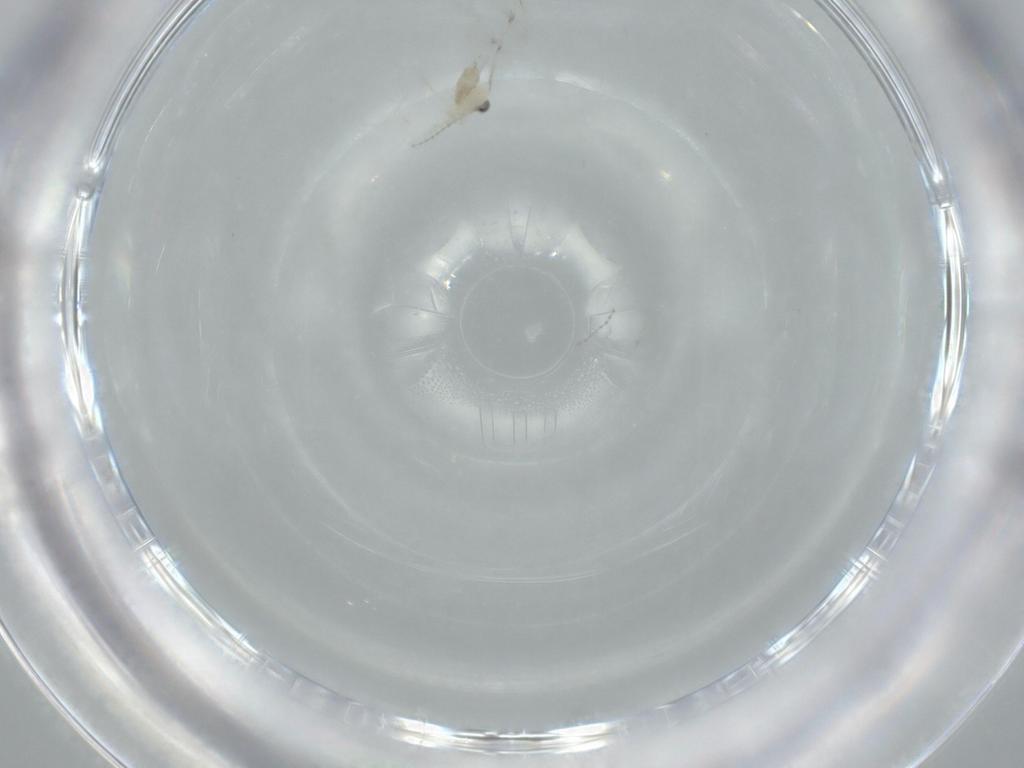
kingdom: Animalia
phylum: Arthropoda
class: Insecta
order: Diptera
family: Cecidomyiidae
